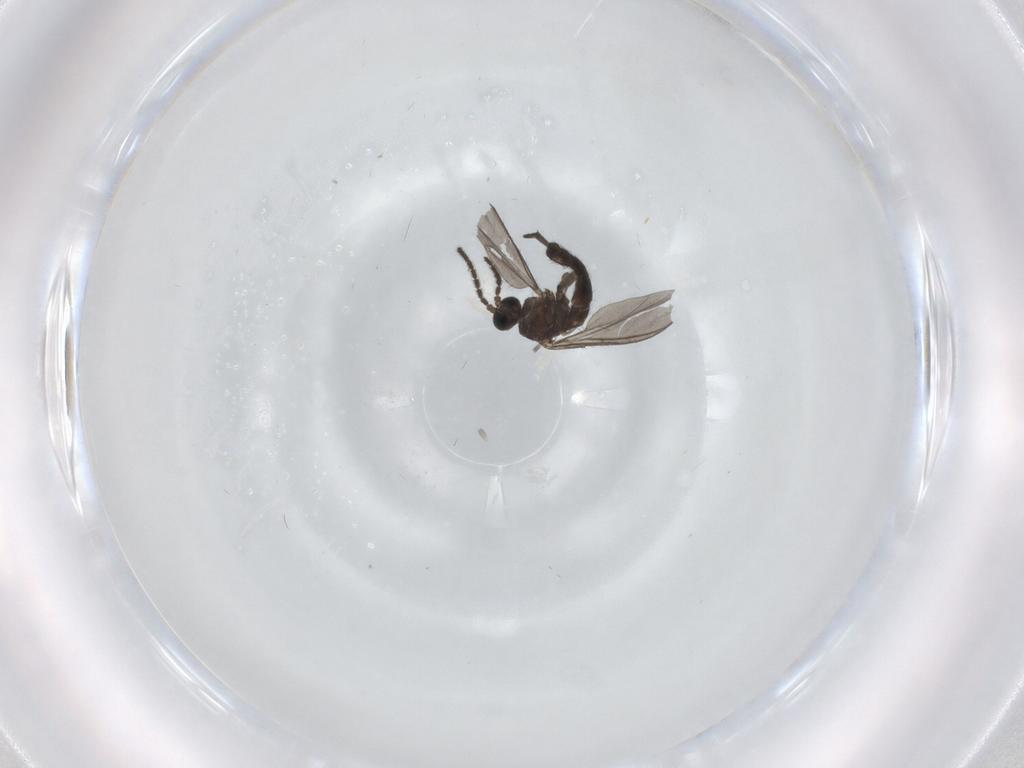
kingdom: Animalia
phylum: Arthropoda
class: Insecta
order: Diptera
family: Sciaridae
